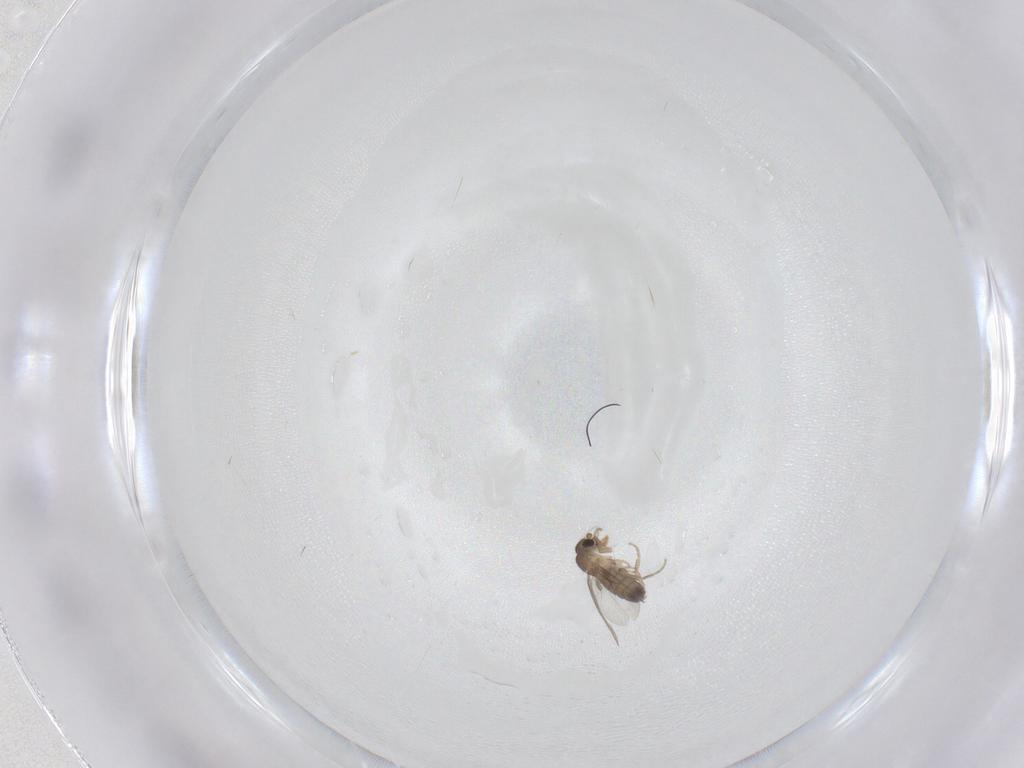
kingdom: Animalia
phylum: Arthropoda
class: Insecta
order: Diptera
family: Phoridae
